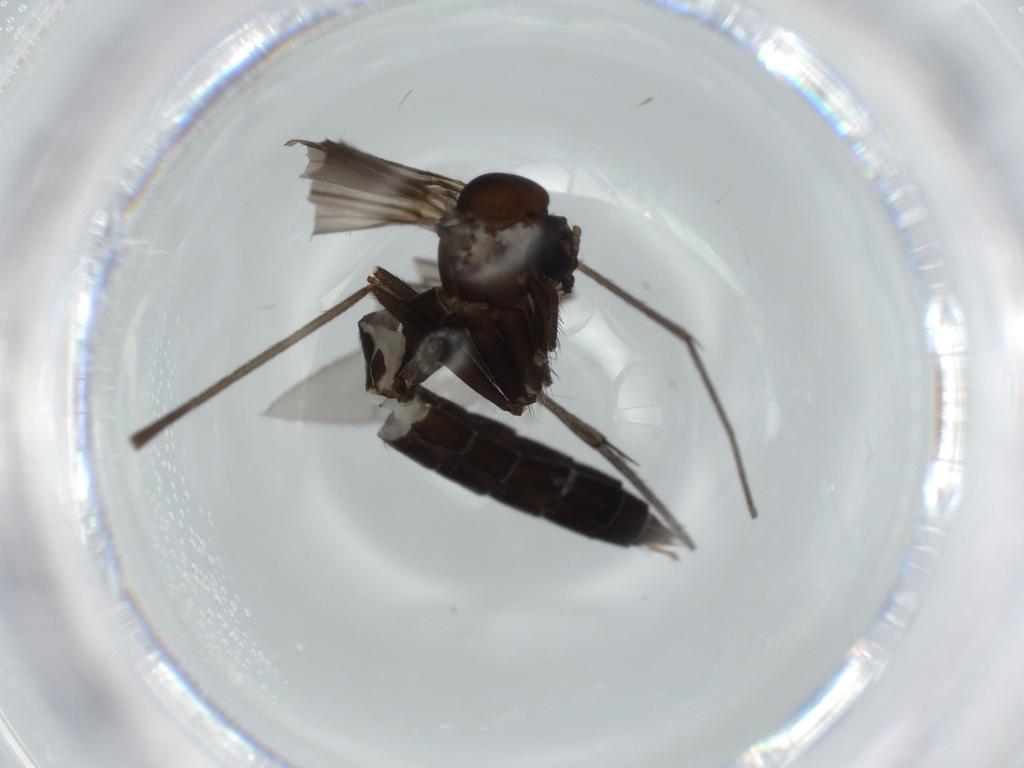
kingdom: Animalia
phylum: Arthropoda
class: Insecta
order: Diptera
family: Ditomyiidae
